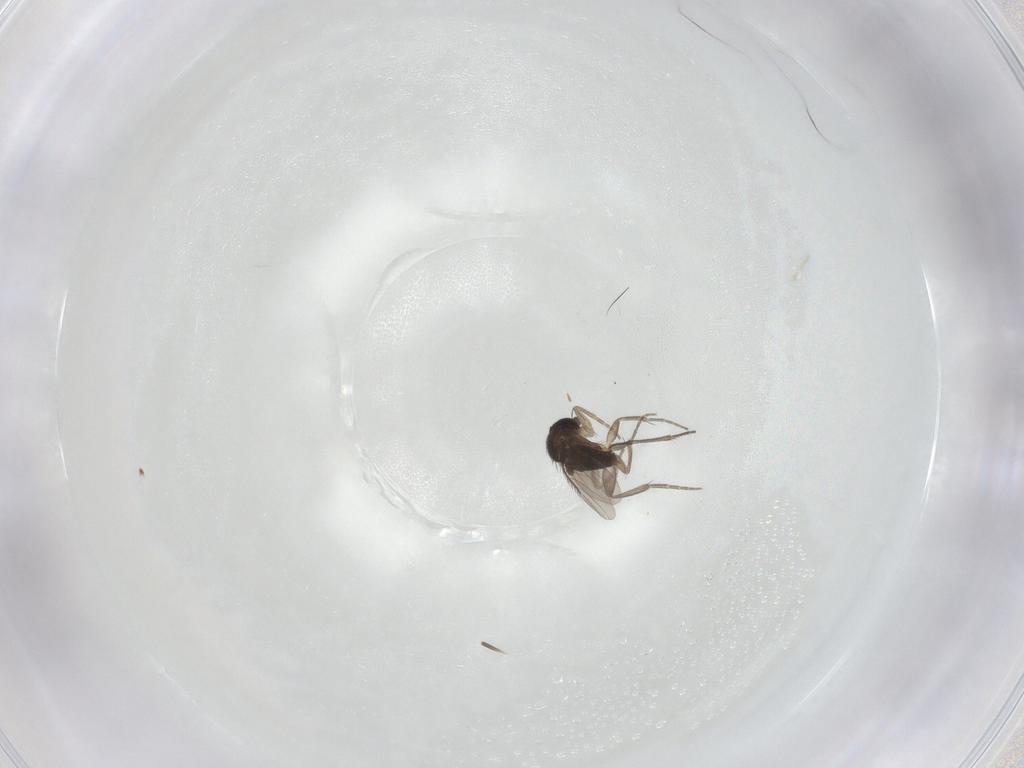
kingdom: Animalia
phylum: Arthropoda
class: Insecta
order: Diptera
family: Phoridae
